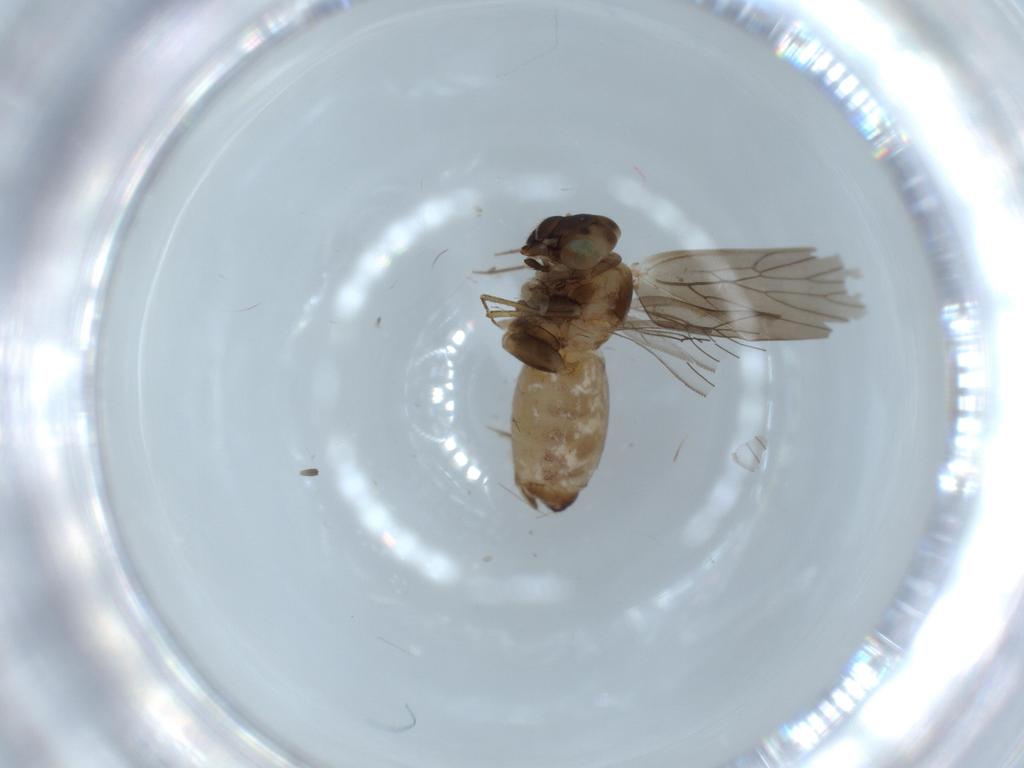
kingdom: Animalia
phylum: Arthropoda
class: Insecta
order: Psocodea
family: Lepidopsocidae
